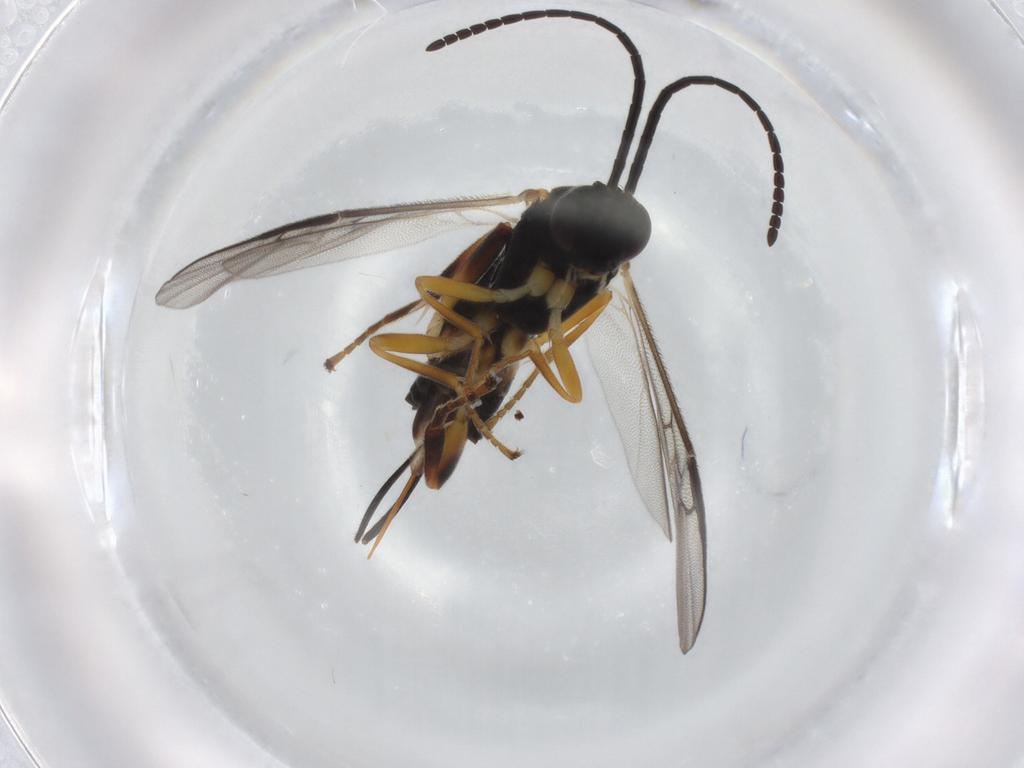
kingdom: Animalia
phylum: Arthropoda
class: Insecta
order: Hymenoptera
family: Braconidae
